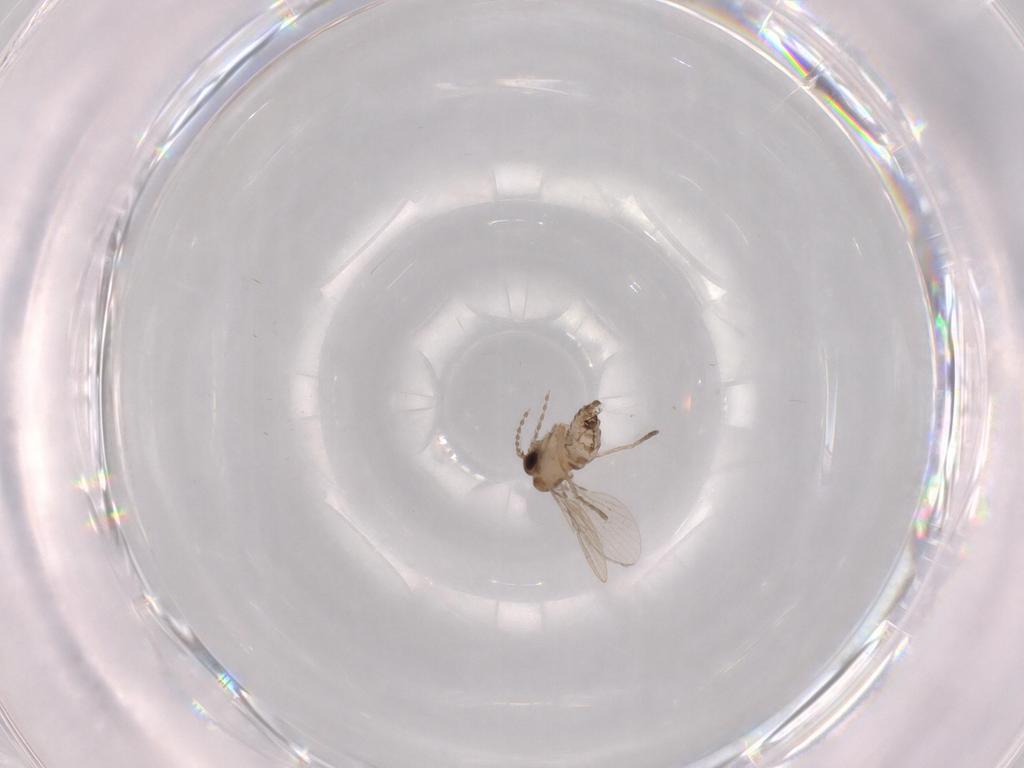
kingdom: Animalia
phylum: Arthropoda
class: Insecta
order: Diptera
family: Psychodidae
